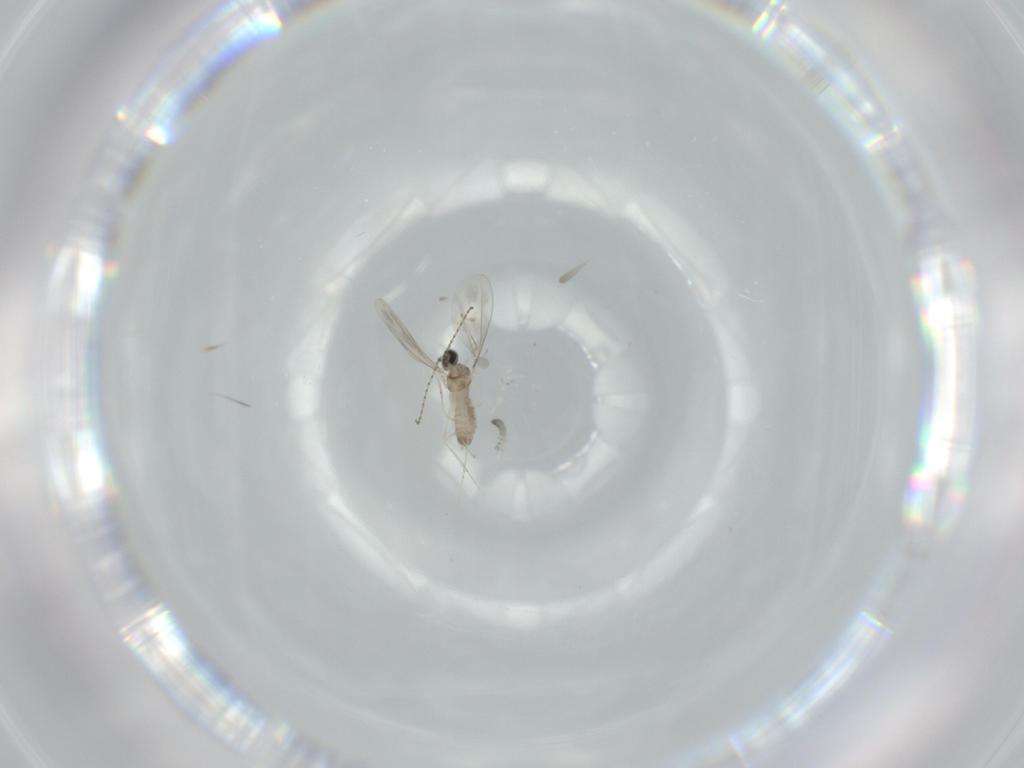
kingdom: Animalia
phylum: Arthropoda
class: Insecta
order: Diptera
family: Cecidomyiidae
